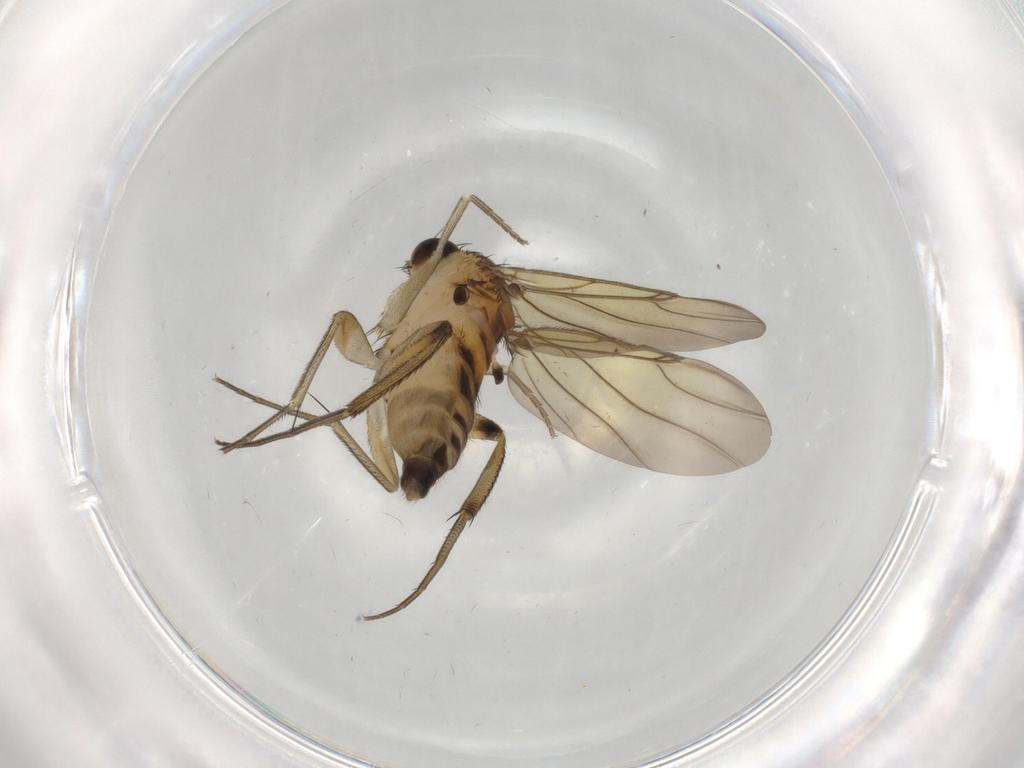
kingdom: Animalia
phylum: Arthropoda
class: Insecta
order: Diptera
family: Phoridae
